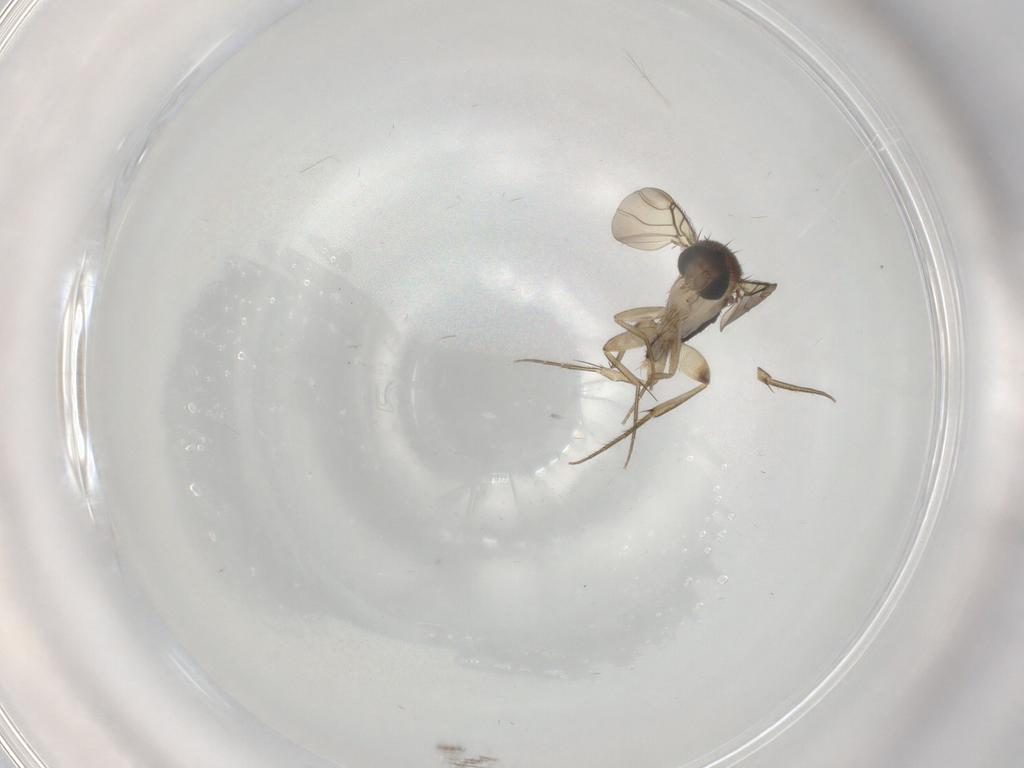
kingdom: Animalia
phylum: Arthropoda
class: Insecta
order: Diptera
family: Phoridae
